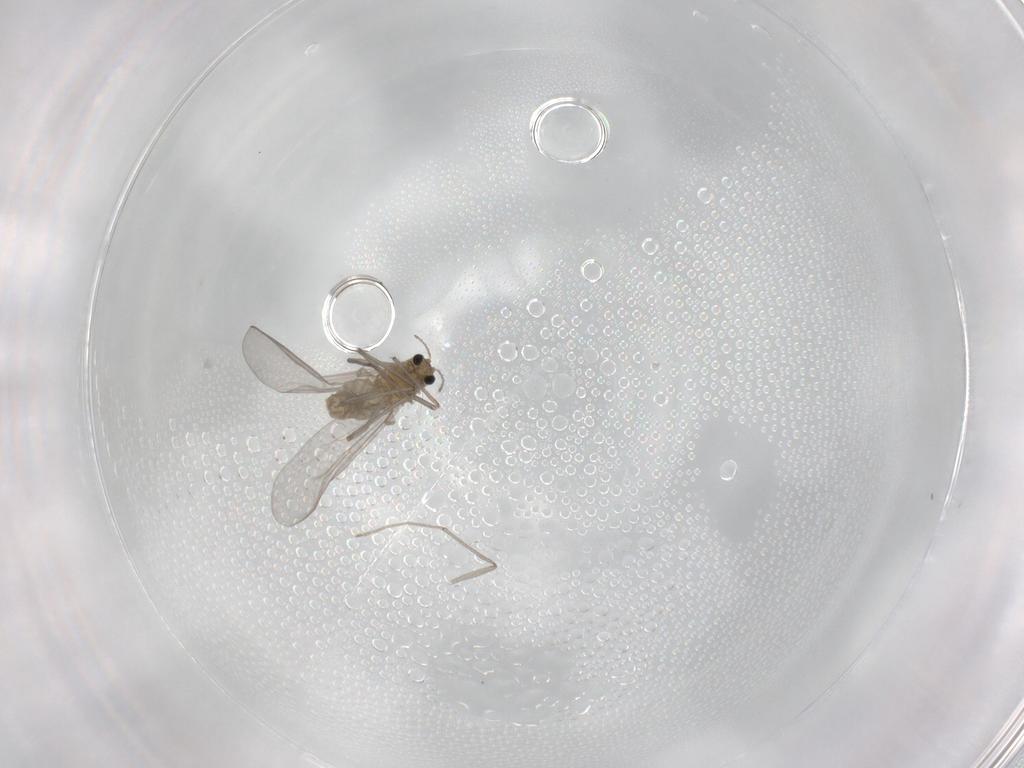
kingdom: Animalia
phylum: Arthropoda
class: Insecta
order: Diptera
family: Chironomidae
